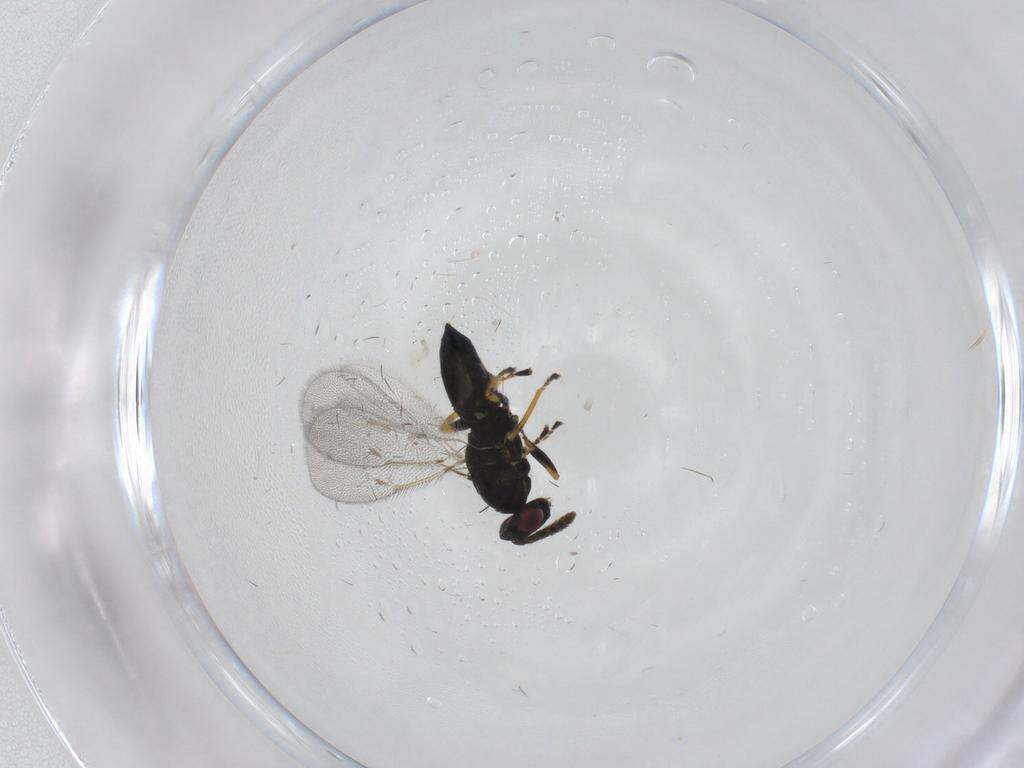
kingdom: Animalia
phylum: Arthropoda
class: Insecta
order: Hymenoptera
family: Eulophidae
